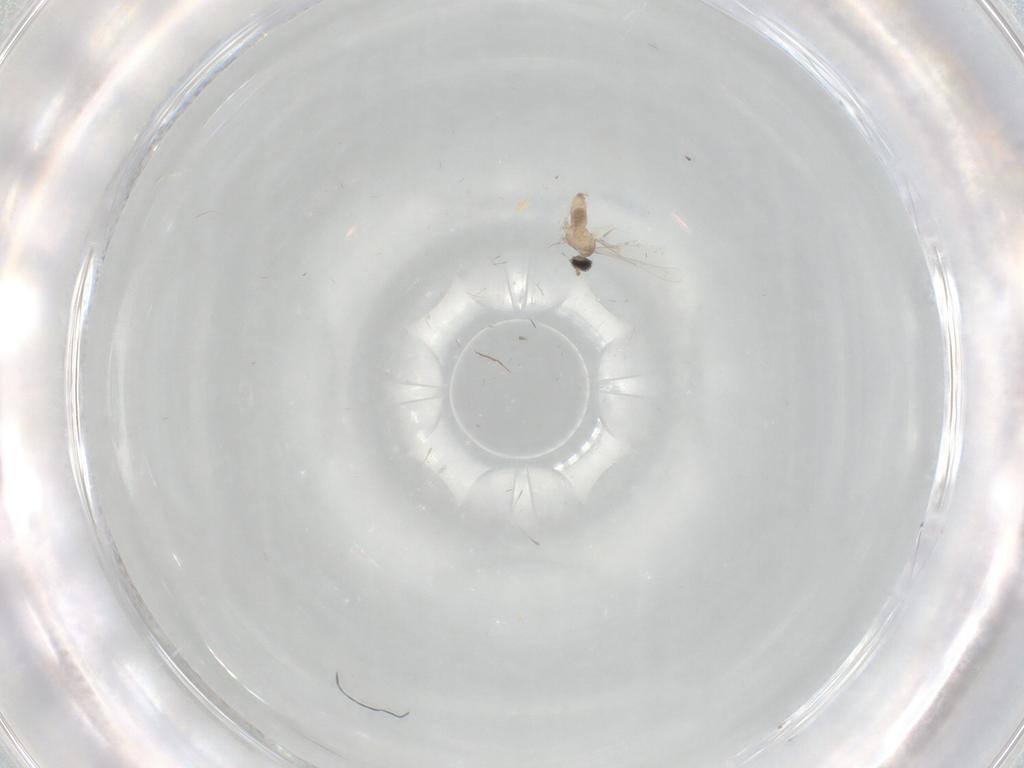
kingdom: Animalia
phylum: Arthropoda
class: Insecta
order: Diptera
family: Cecidomyiidae
